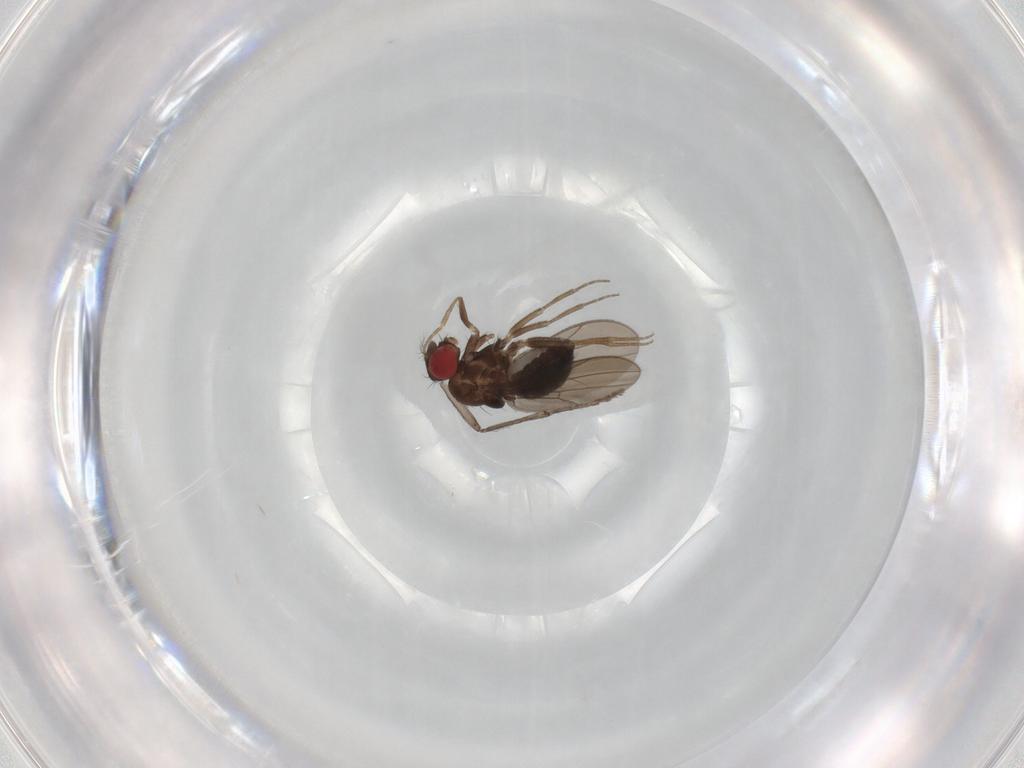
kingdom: Animalia
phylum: Arthropoda
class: Insecta
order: Diptera
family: Drosophilidae
